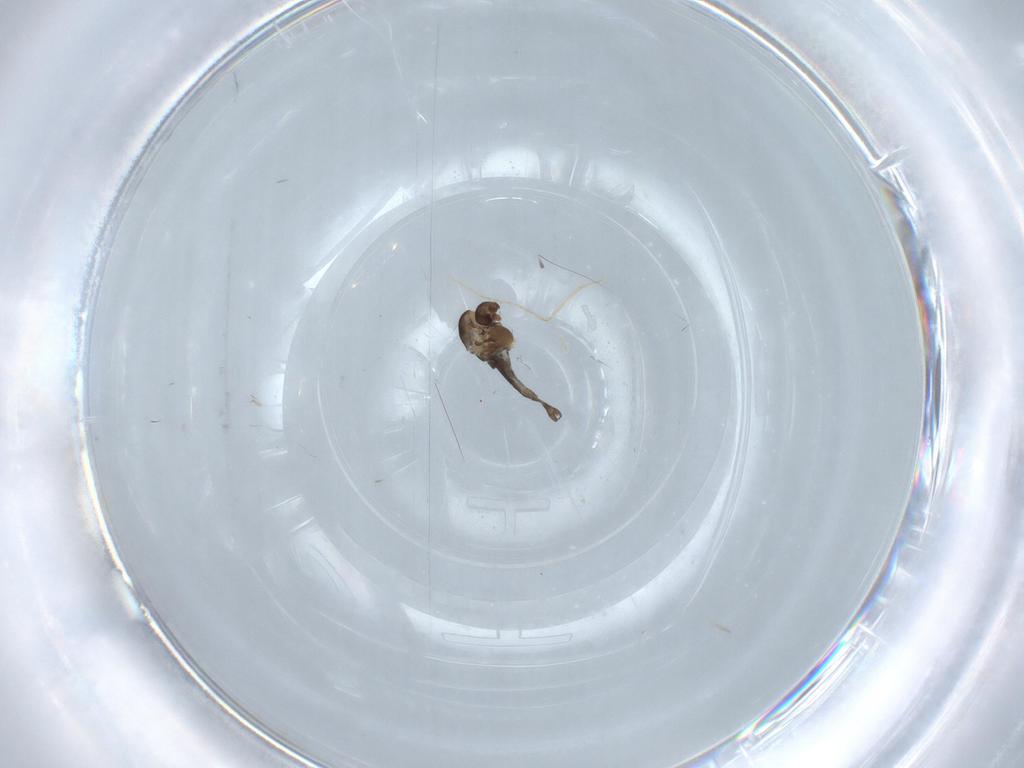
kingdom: Animalia
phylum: Arthropoda
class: Insecta
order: Diptera
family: Chironomidae
